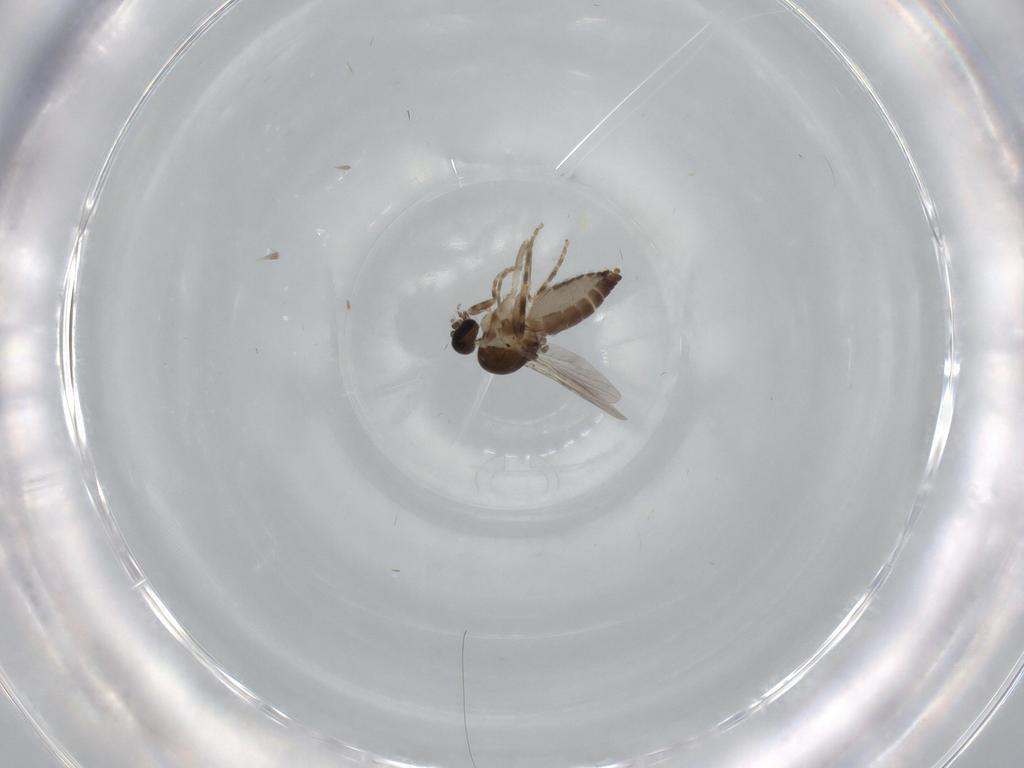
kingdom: Animalia
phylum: Arthropoda
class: Insecta
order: Diptera
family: Ceratopogonidae
